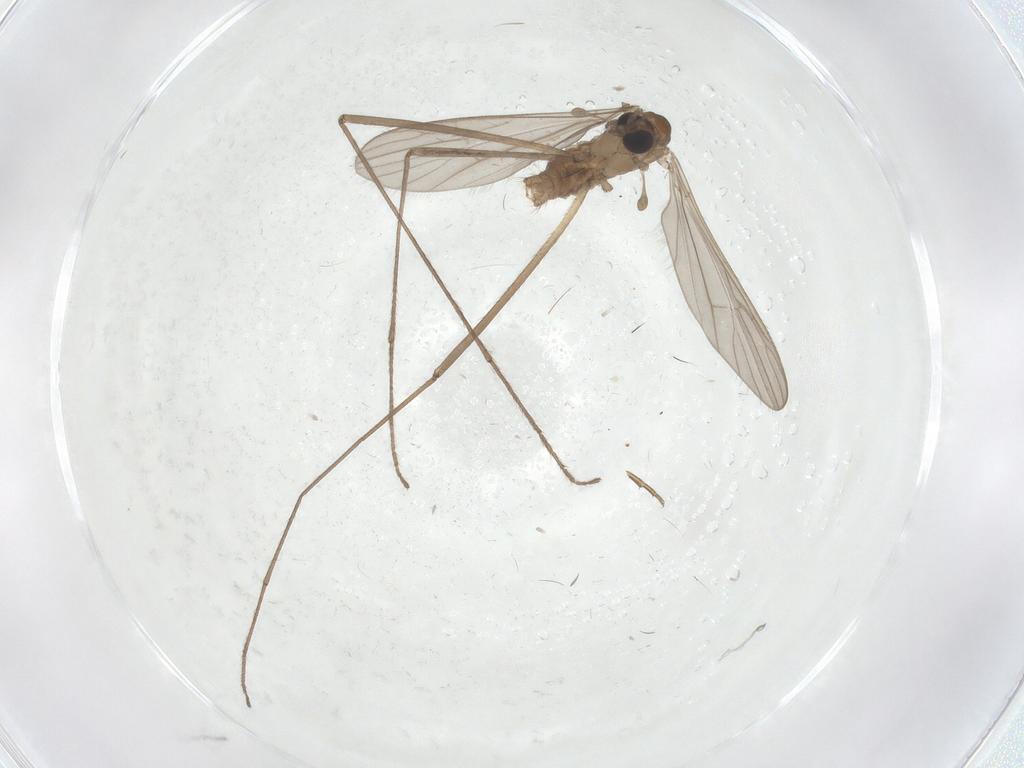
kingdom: Animalia
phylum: Arthropoda
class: Insecta
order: Diptera
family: Limoniidae
